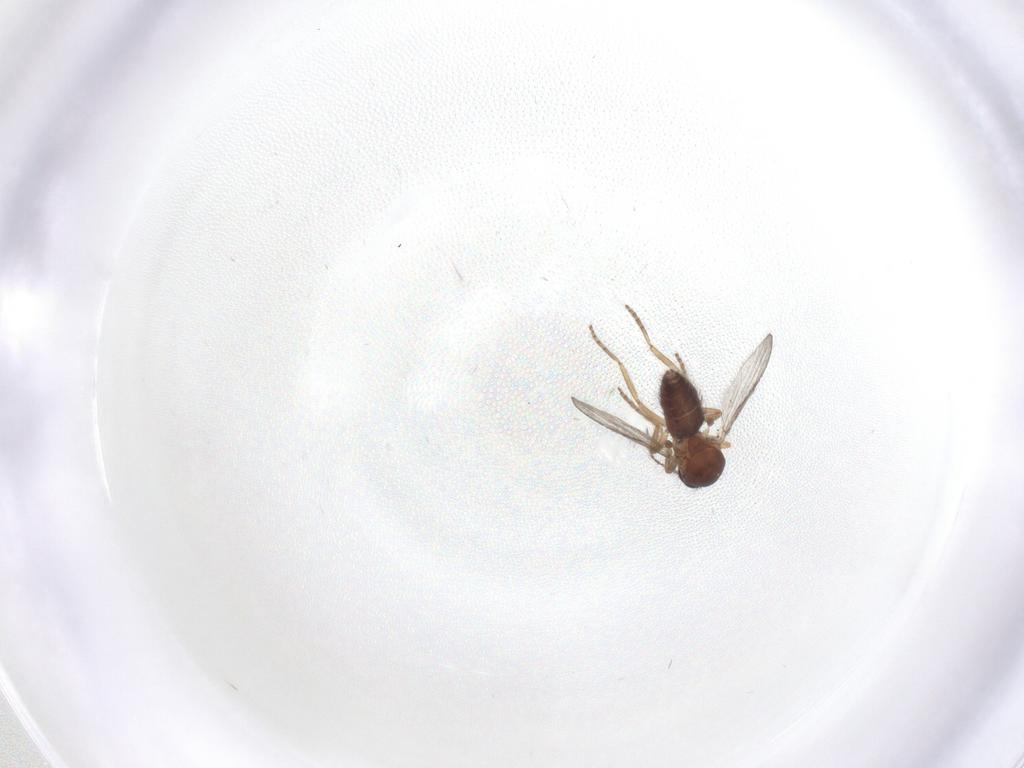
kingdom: Animalia
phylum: Arthropoda
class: Insecta
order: Diptera
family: Ceratopogonidae
